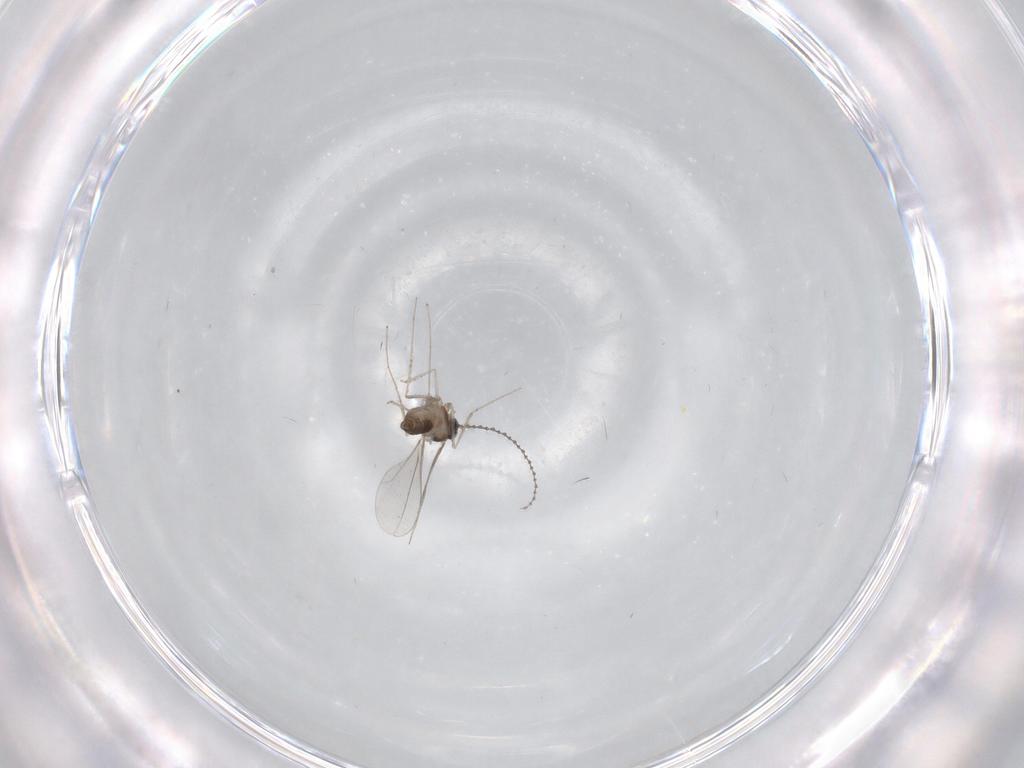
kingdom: Animalia
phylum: Arthropoda
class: Insecta
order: Diptera
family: Cecidomyiidae
